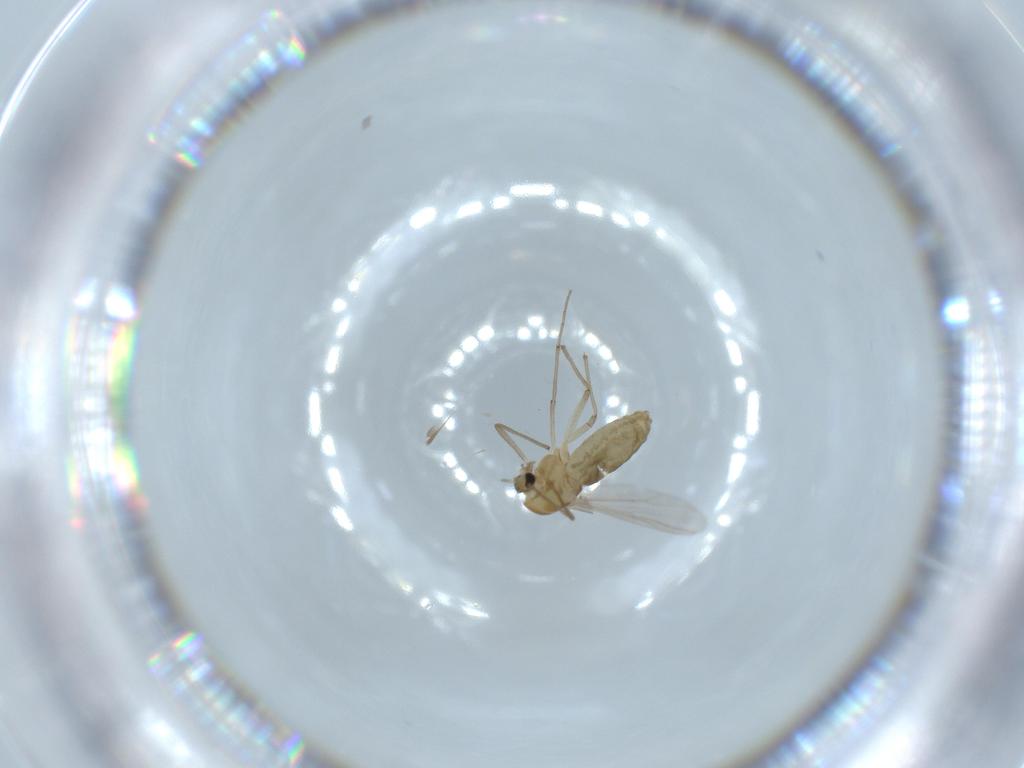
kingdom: Animalia
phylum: Arthropoda
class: Insecta
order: Diptera
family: Chironomidae
